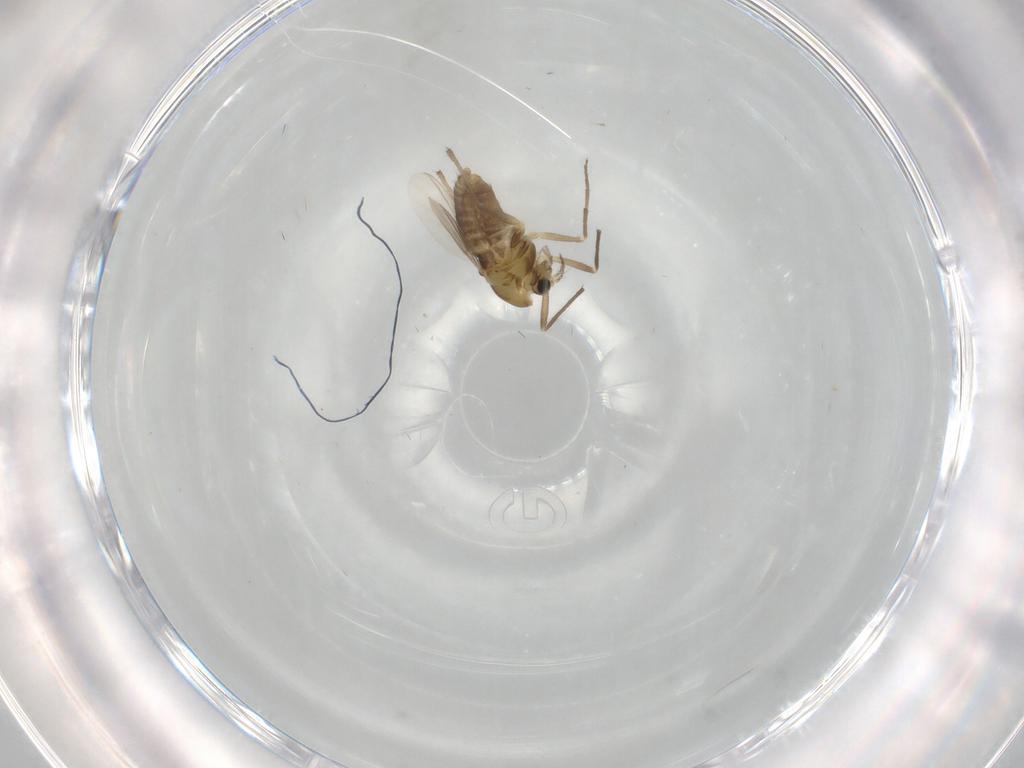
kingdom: Animalia
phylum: Arthropoda
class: Insecta
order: Diptera
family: Chironomidae
